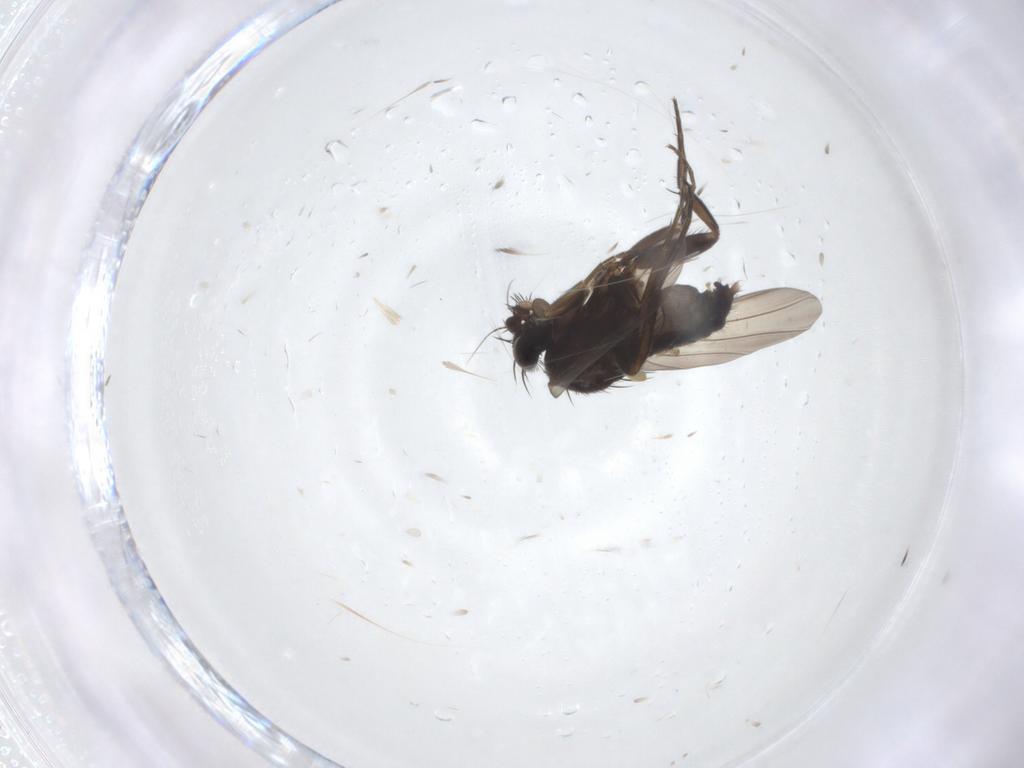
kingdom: Animalia
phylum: Arthropoda
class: Insecta
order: Diptera
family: Phoridae
